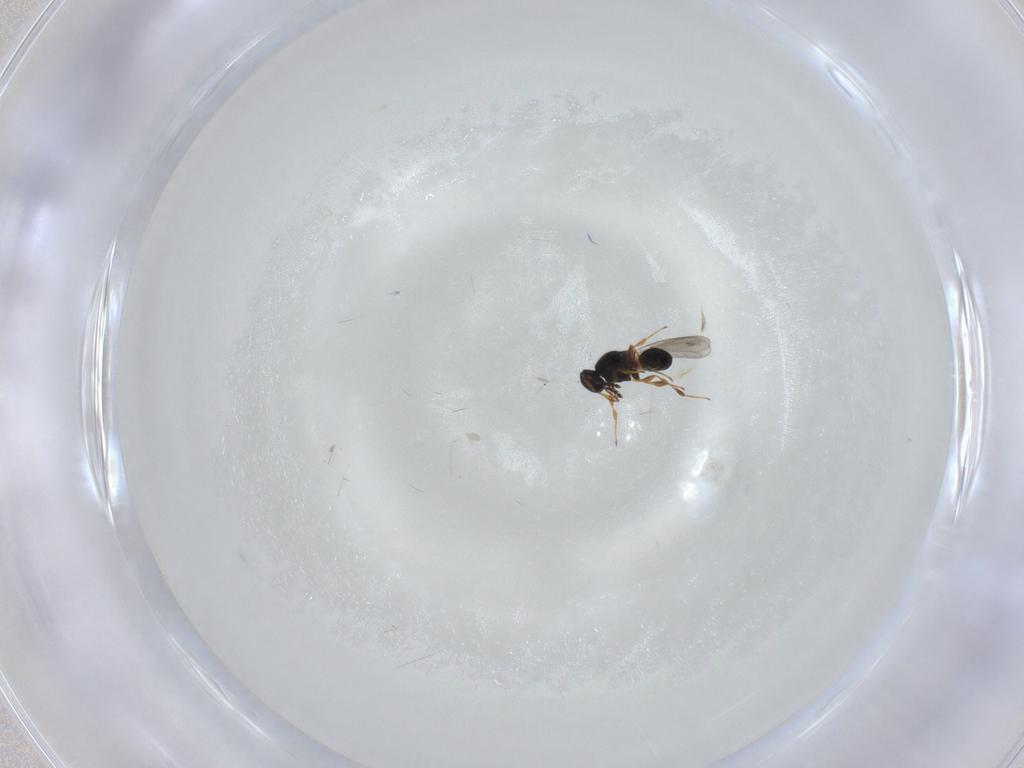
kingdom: Animalia
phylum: Arthropoda
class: Insecta
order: Hymenoptera
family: Platygastridae
